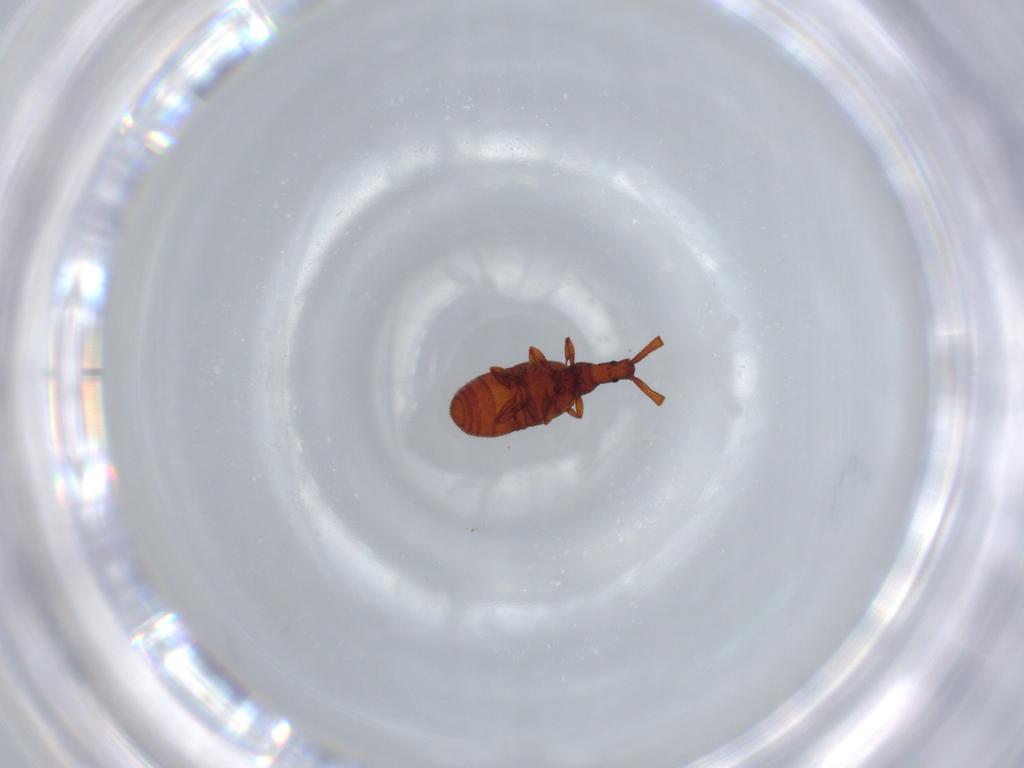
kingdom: Animalia
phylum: Arthropoda
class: Insecta
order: Coleoptera
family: Staphylinidae
